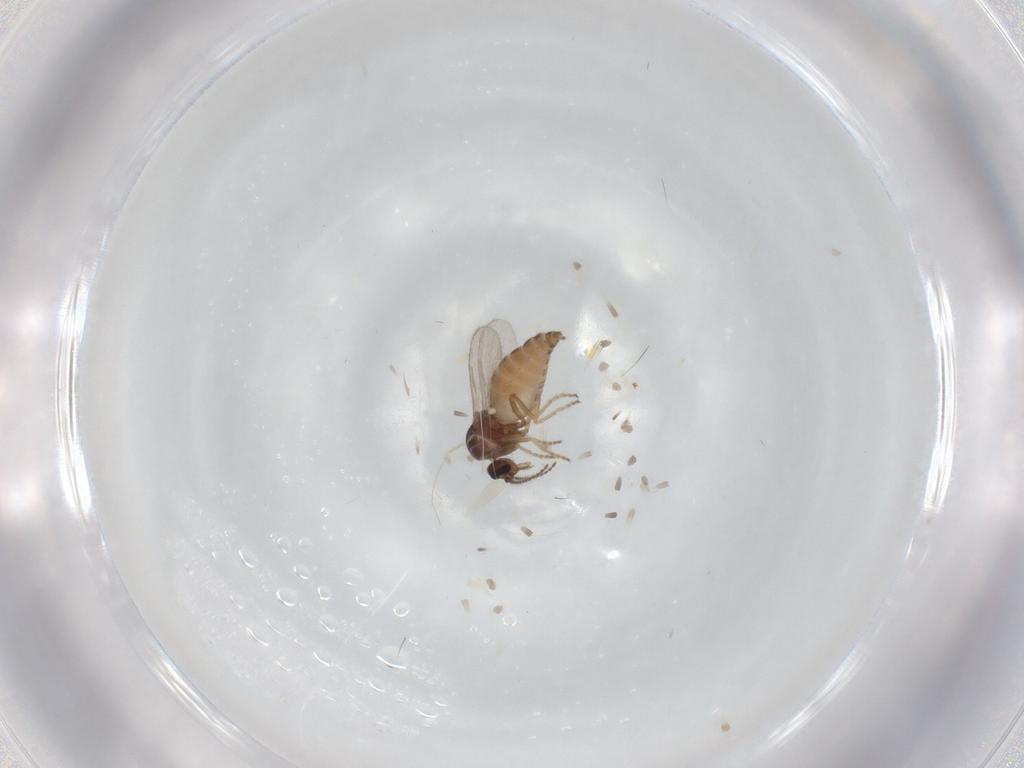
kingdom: Animalia
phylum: Arthropoda
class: Insecta
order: Diptera
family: Ceratopogonidae
